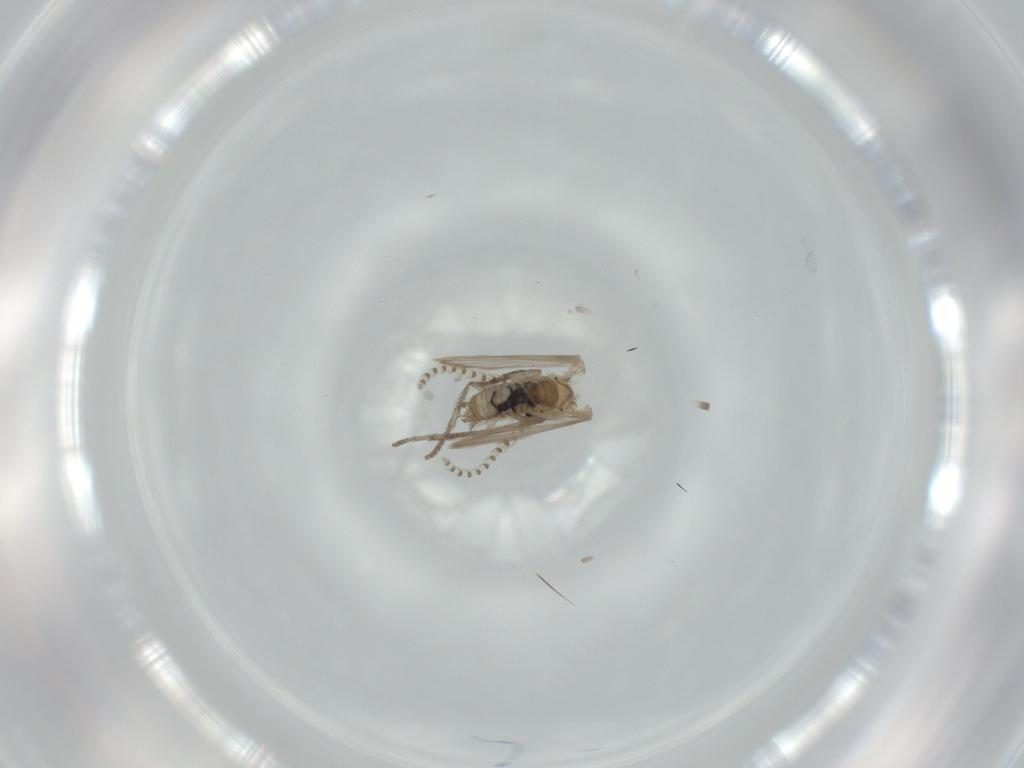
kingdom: Animalia
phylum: Arthropoda
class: Insecta
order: Diptera
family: Psychodidae
